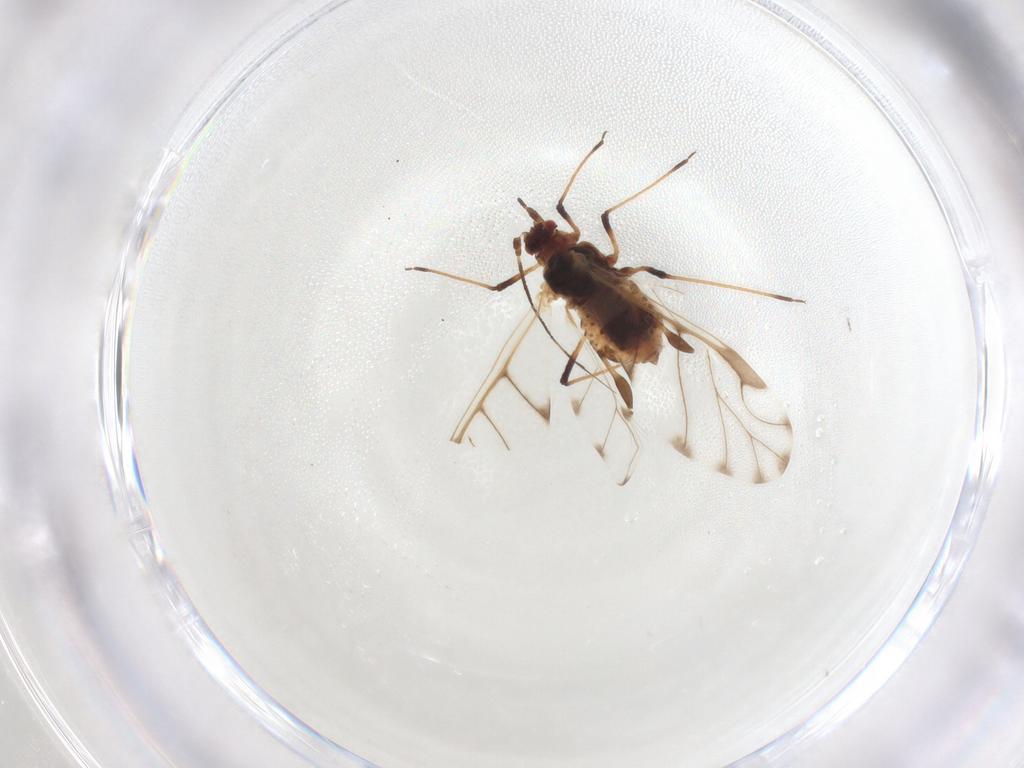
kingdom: Animalia
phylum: Arthropoda
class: Insecta
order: Hemiptera
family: Aphididae
